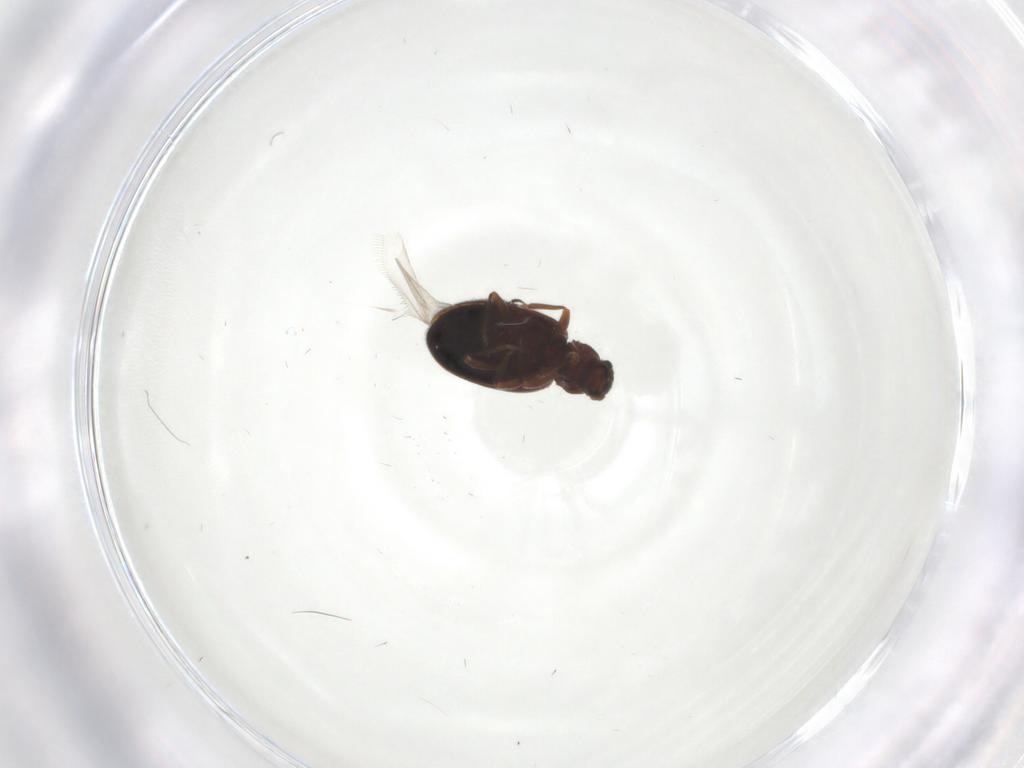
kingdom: Animalia
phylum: Arthropoda
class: Insecta
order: Coleoptera
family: Latridiidae
